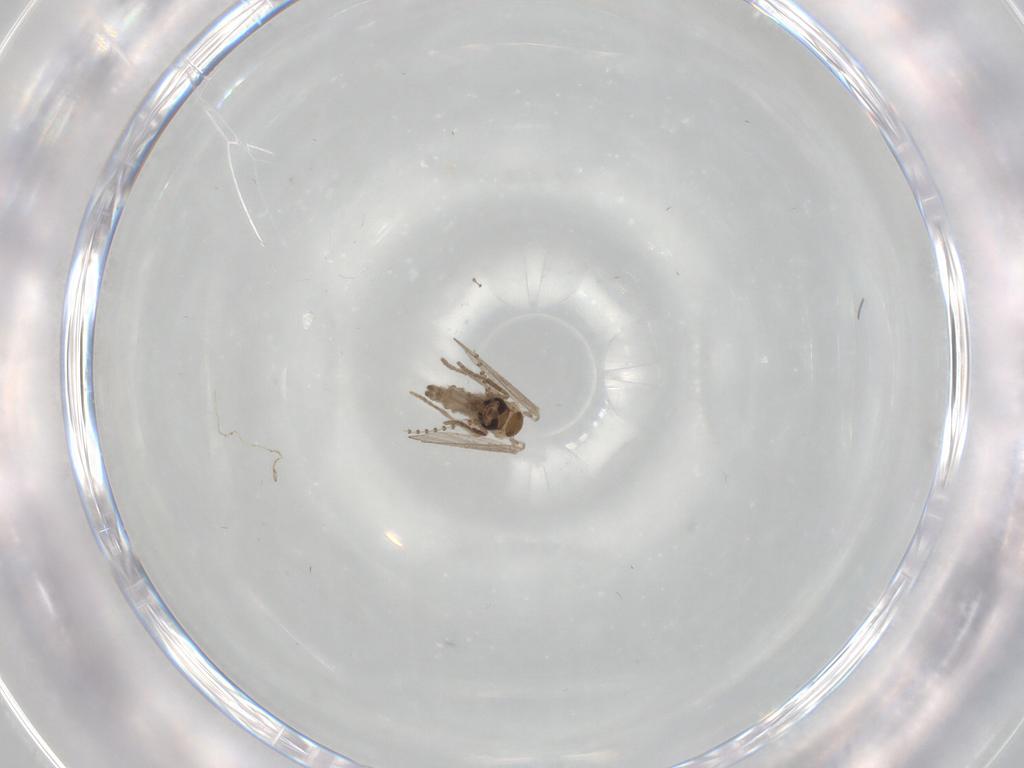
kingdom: Animalia
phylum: Arthropoda
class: Insecta
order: Diptera
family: Psychodidae
